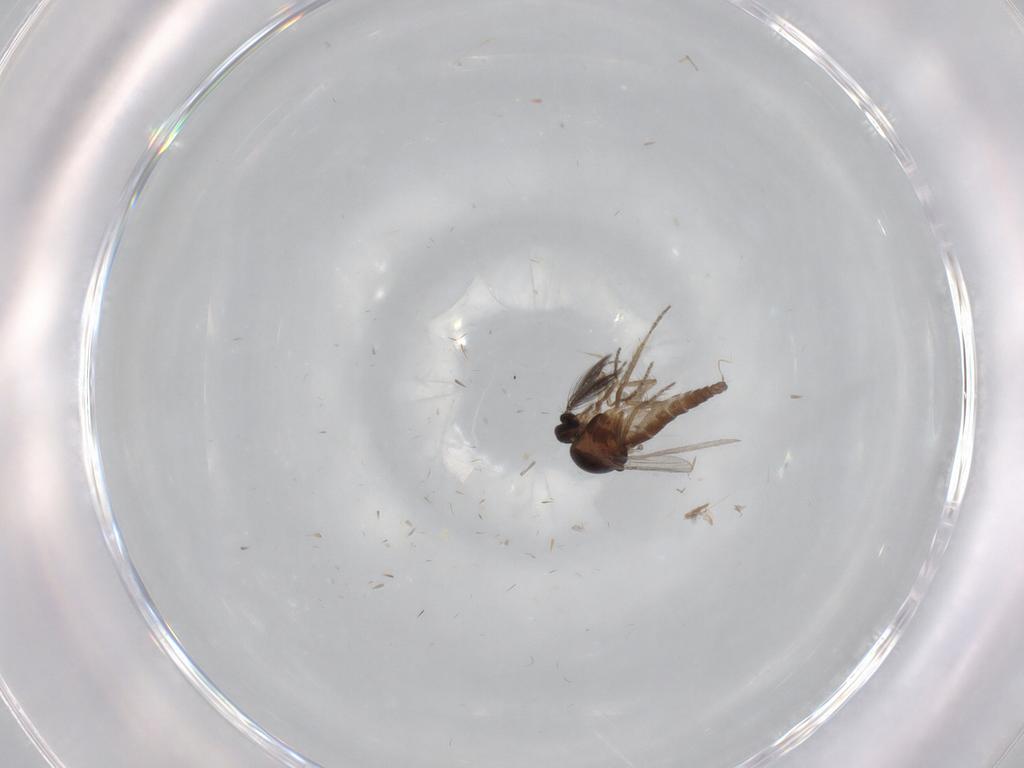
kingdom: Animalia
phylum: Arthropoda
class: Insecta
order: Diptera
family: Ceratopogonidae
